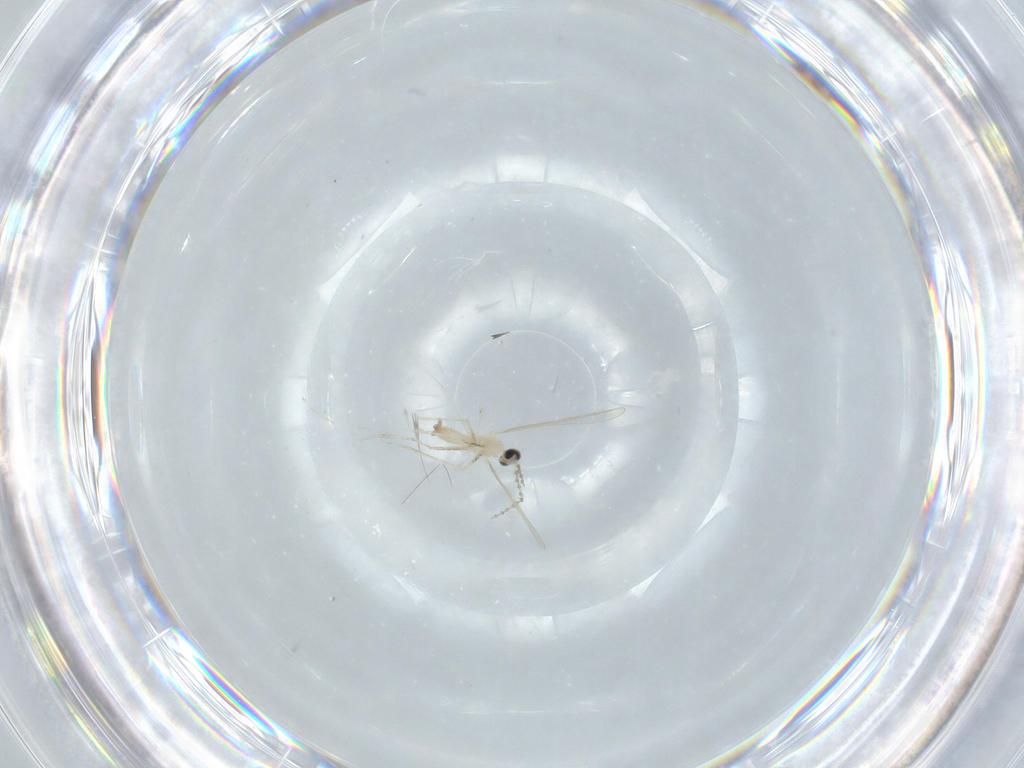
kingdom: Animalia
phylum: Arthropoda
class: Insecta
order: Diptera
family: Cecidomyiidae
